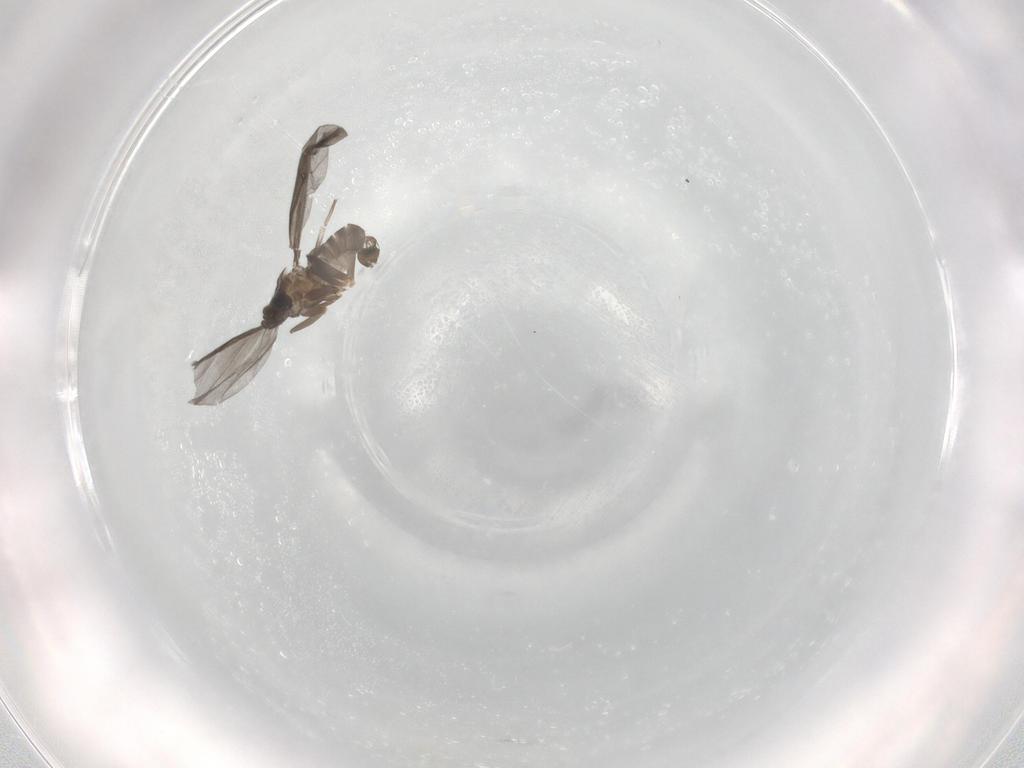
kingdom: Animalia
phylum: Arthropoda
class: Insecta
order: Diptera
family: Phoridae
